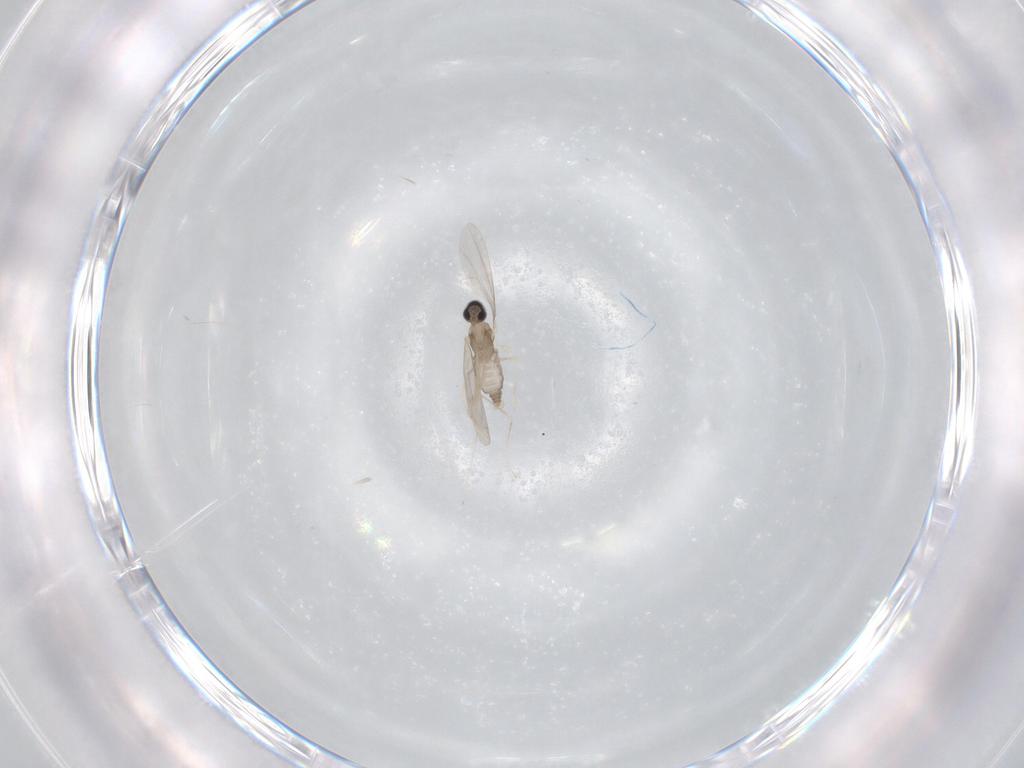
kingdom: Animalia
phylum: Arthropoda
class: Insecta
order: Diptera
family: Cecidomyiidae
